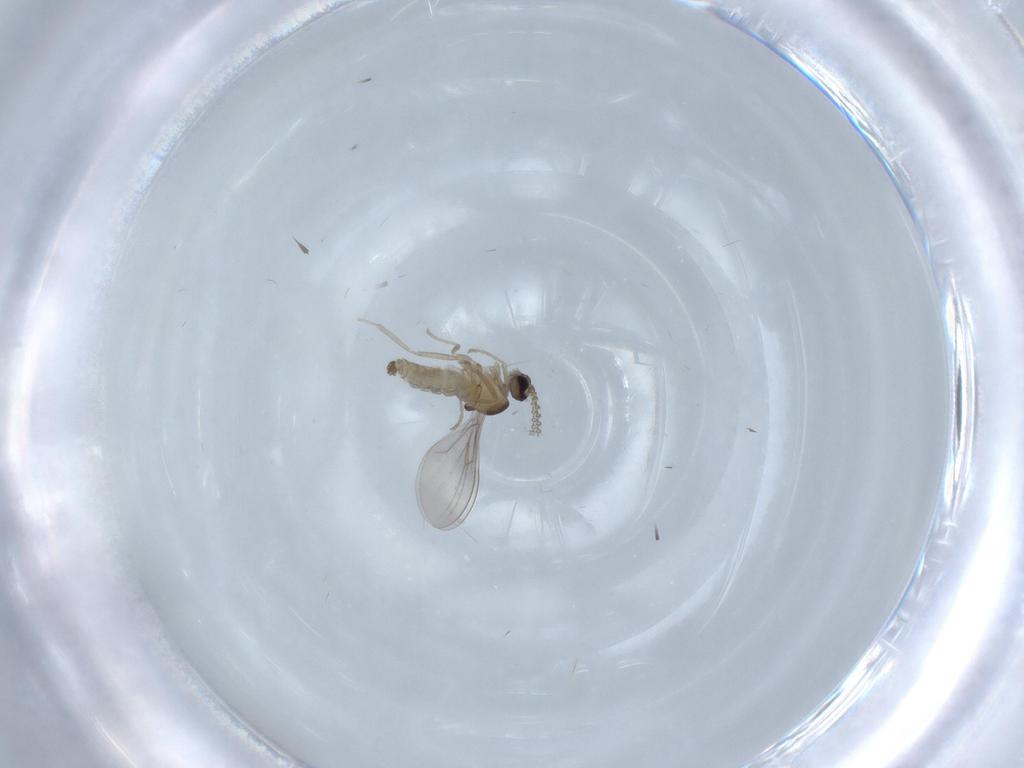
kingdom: Animalia
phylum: Arthropoda
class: Insecta
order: Diptera
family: Cecidomyiidae
